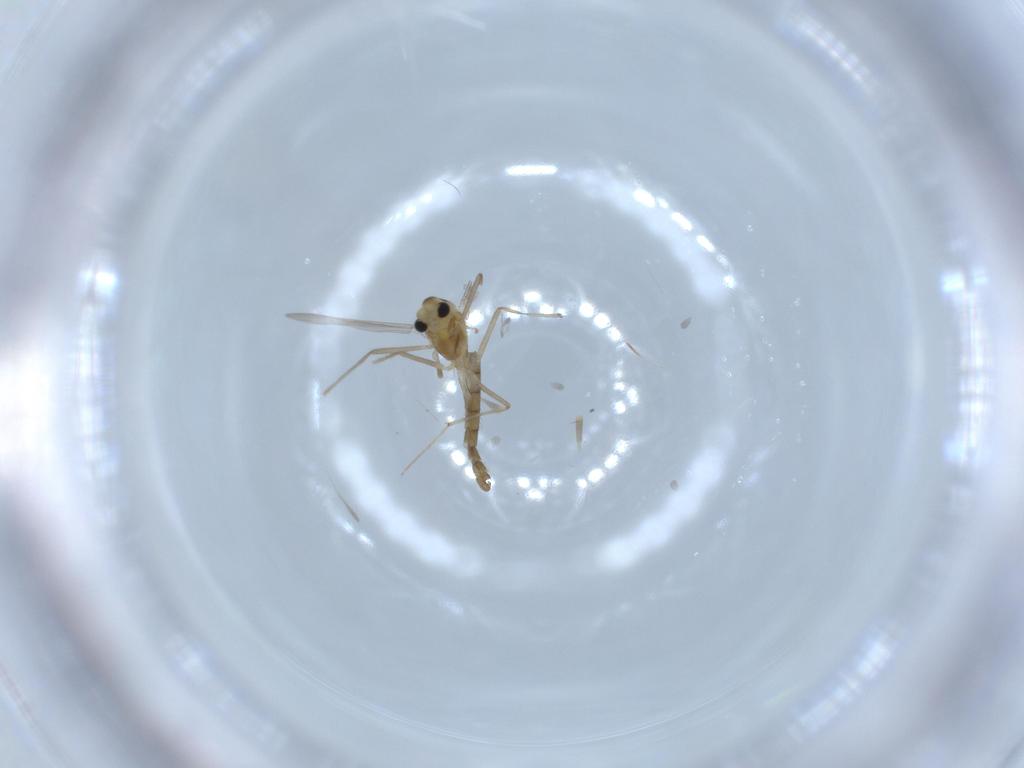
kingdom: Animalia
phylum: Arthropoda
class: Insecta
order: Diptera
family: Chironomidae
